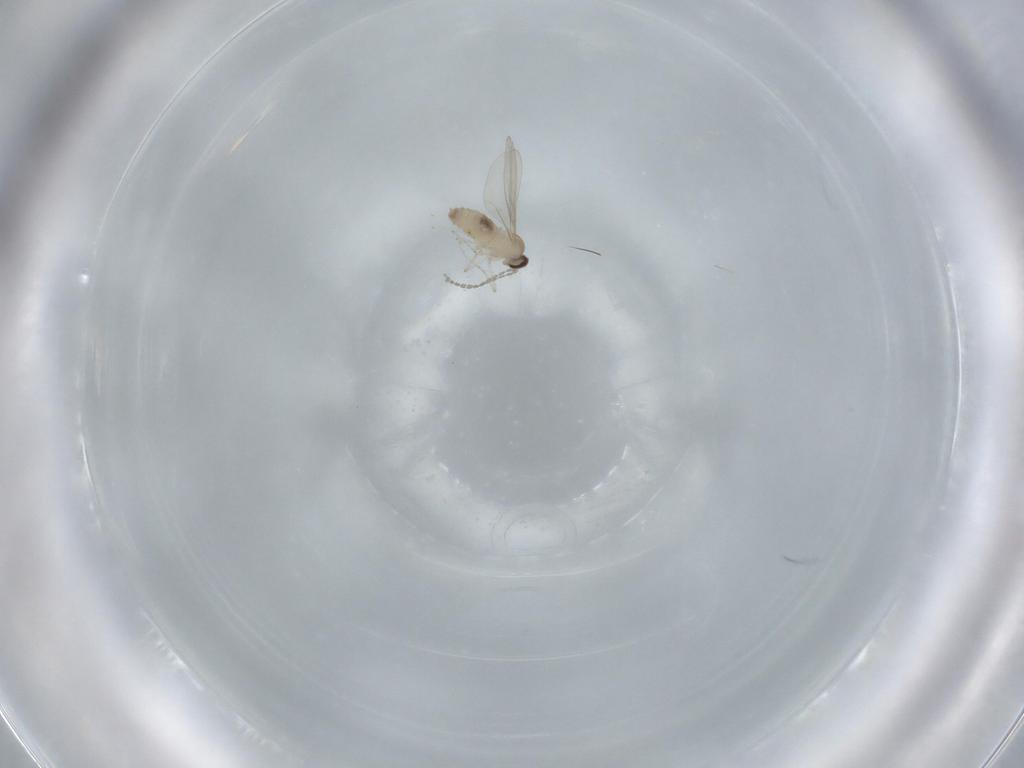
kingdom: Animalia
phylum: Arthropoda
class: Insecta
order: Diptera
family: Cecidomyiidae
